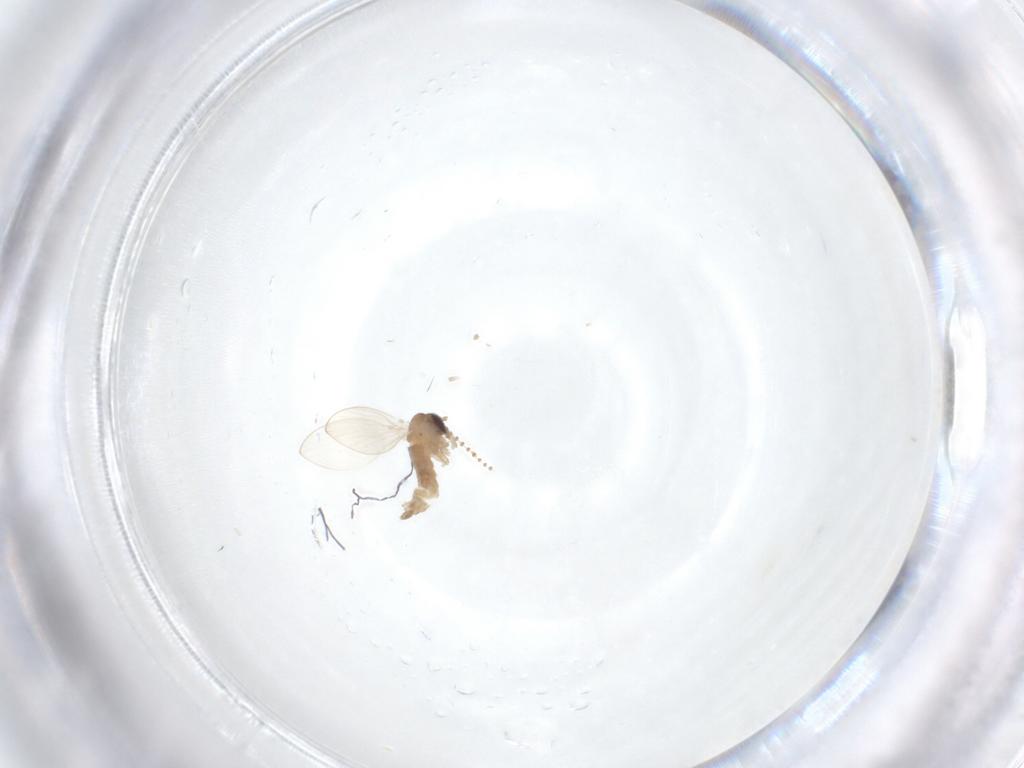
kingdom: Animalia
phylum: Arthropoda
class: Insecta
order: Diptera
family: Psychodidae
